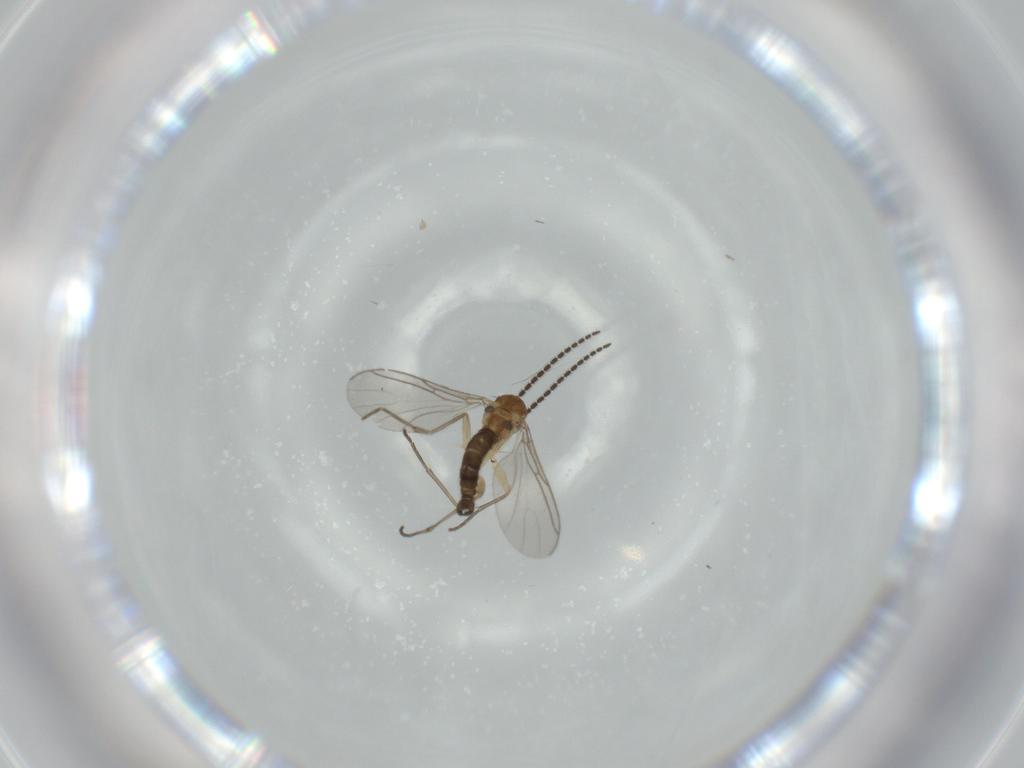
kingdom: Animalia
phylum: Arthropoda
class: Insecta
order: Diptera
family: Sciaridae
